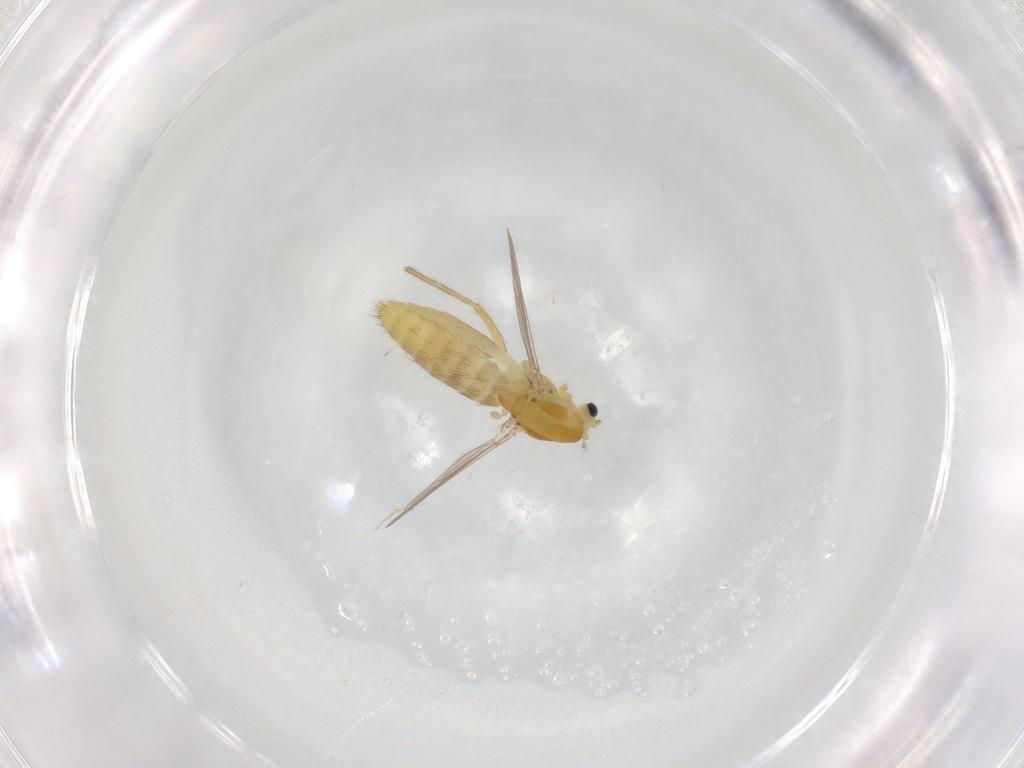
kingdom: Animalia
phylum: Arthropoda
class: Insecta
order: Diptera
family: Chironomidae
